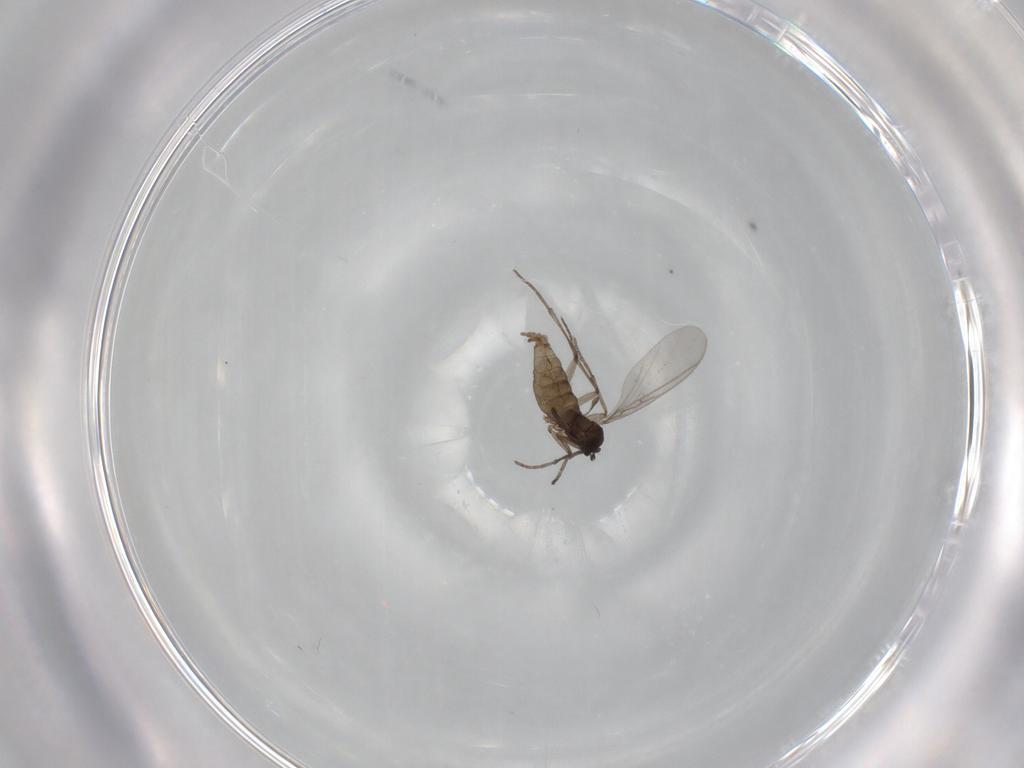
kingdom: Animalia
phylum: Arthropoda
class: Insecta
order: Diptera
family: Sciaridae
